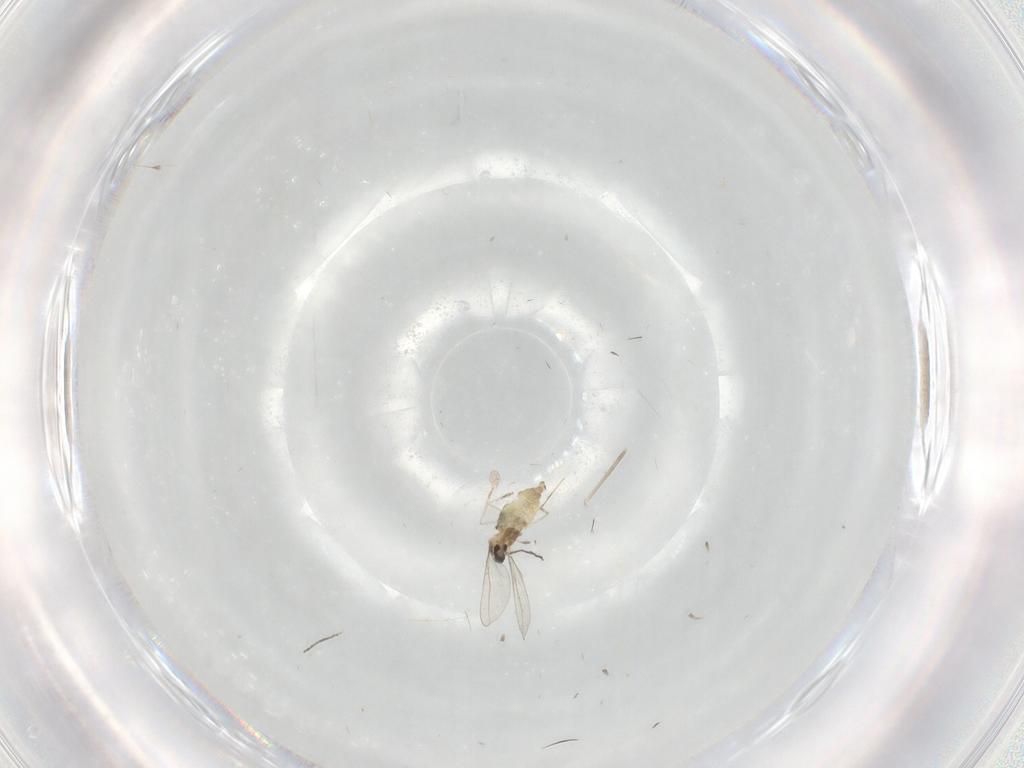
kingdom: Animalia
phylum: Arthropoda
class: Insecta
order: Diptera
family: Cecidomyiidae
